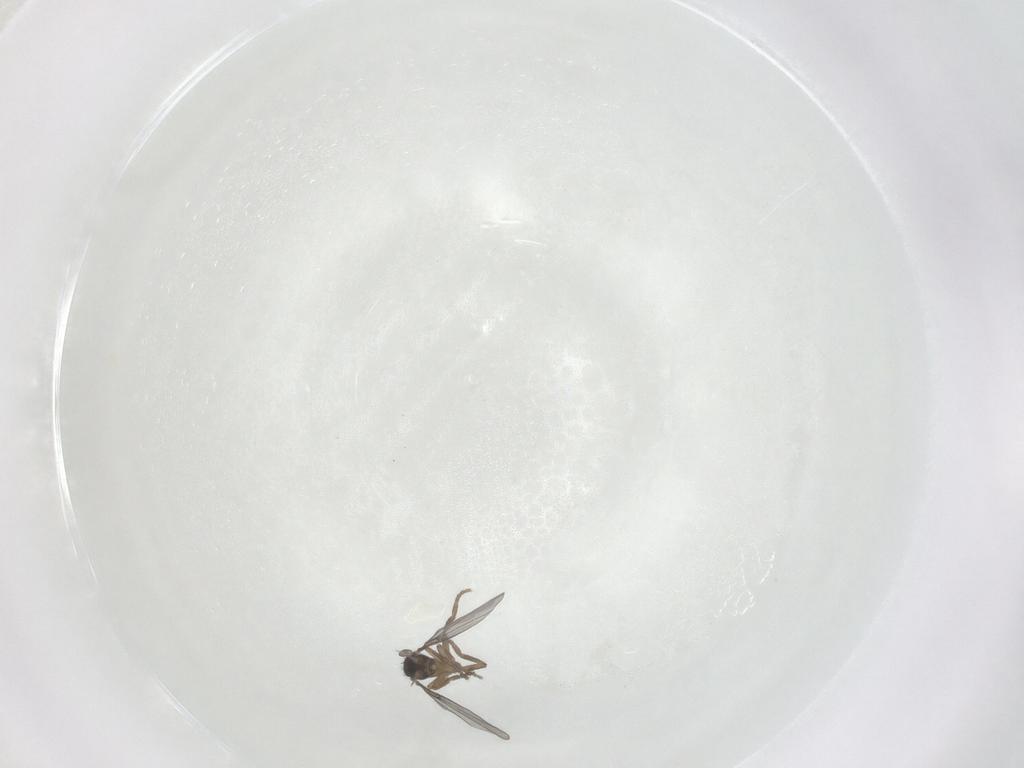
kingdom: Animalia
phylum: Arthropoda
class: Insecta
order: Diptera
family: Phoridae
